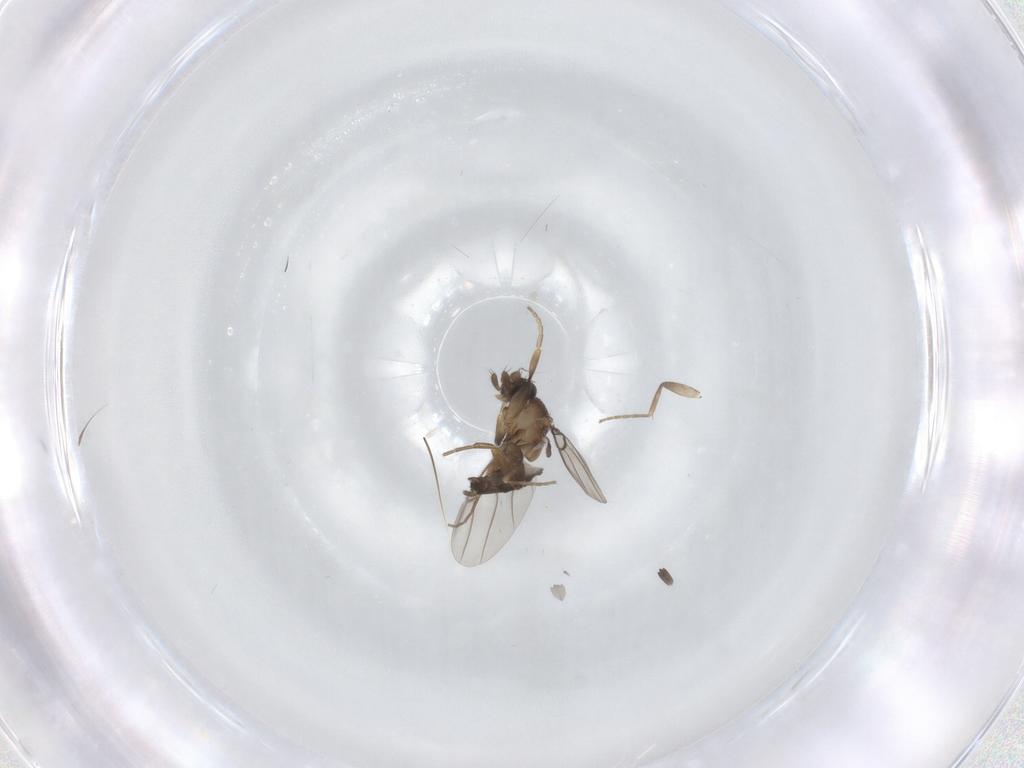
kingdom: Animalia
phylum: Arthropoda
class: Insecta
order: Diptera
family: Phoridae
